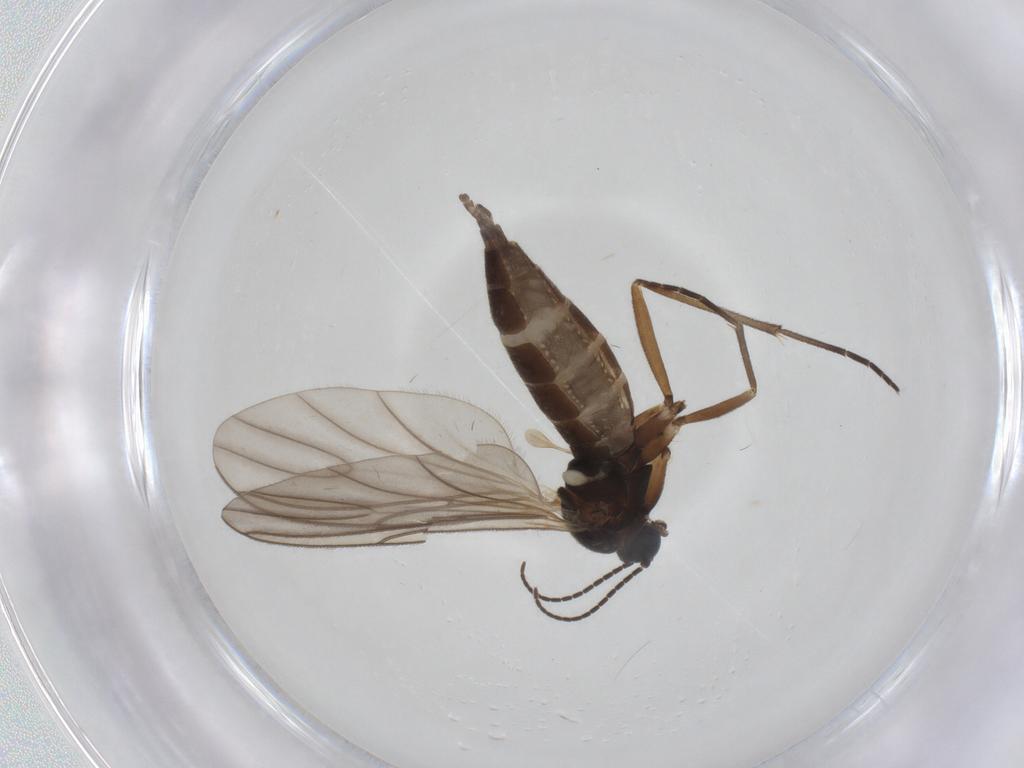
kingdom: Animalia
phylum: Arthropoda
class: Insecta
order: Diptera
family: Sciaridae
